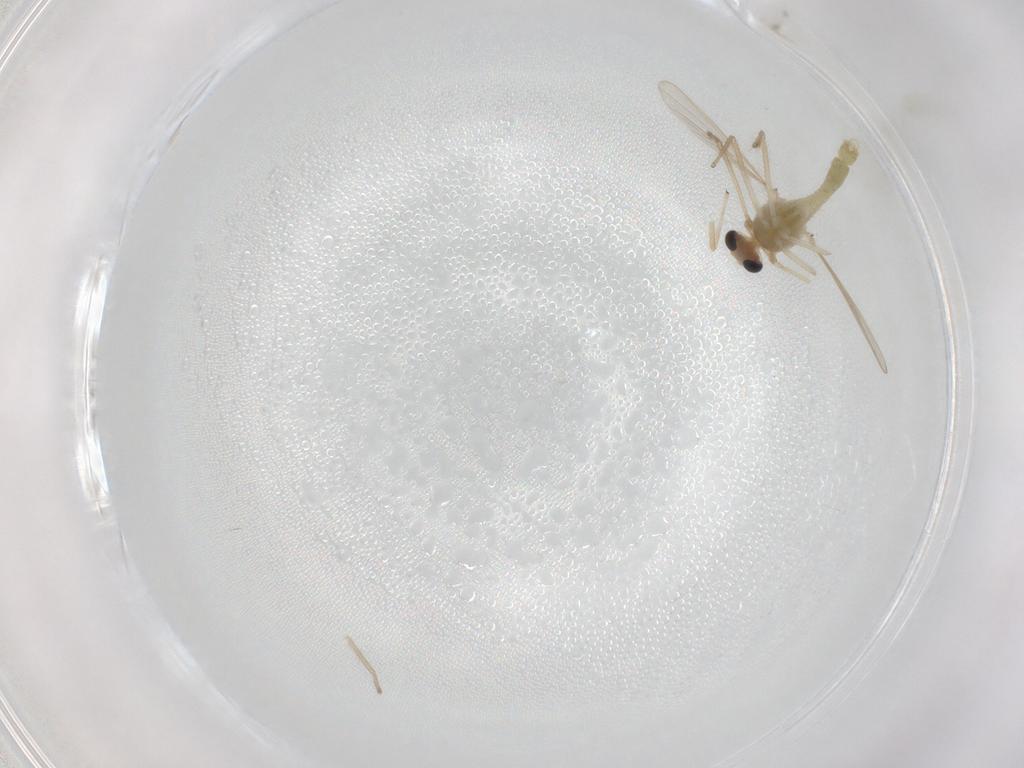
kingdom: Animalia
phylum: Arthropoda
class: Insecta
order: Diptera
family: Chironomidae
